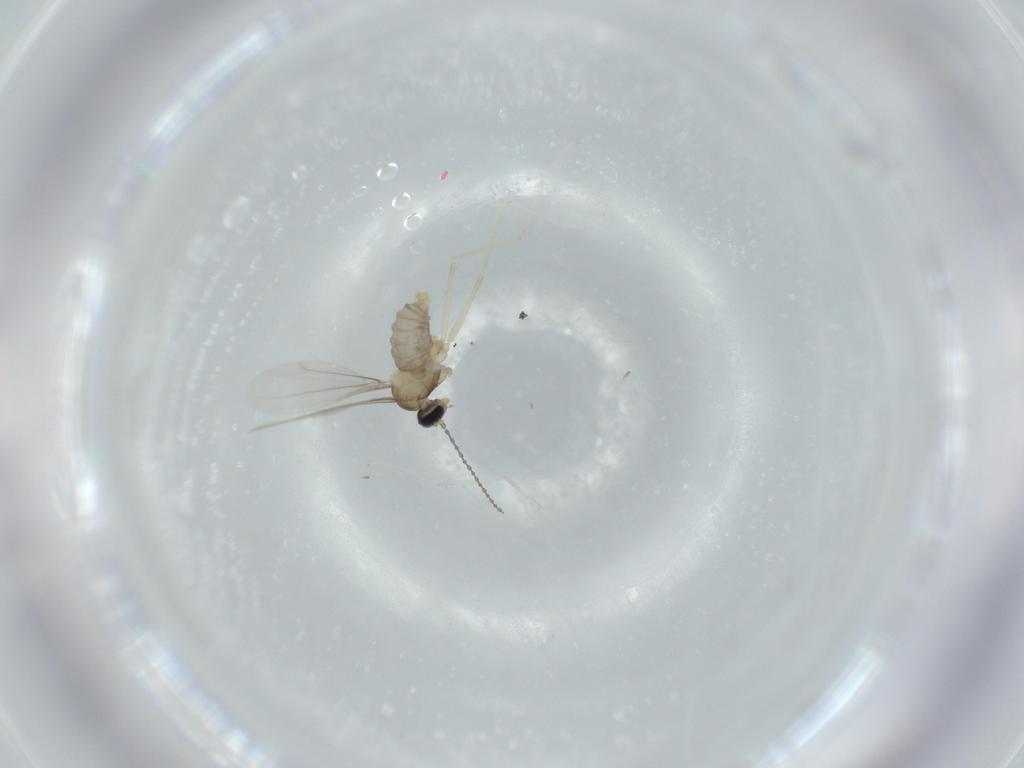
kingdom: Animalia
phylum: Arthropoda
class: Insecta
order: Diptera
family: Cecidomyiidae
